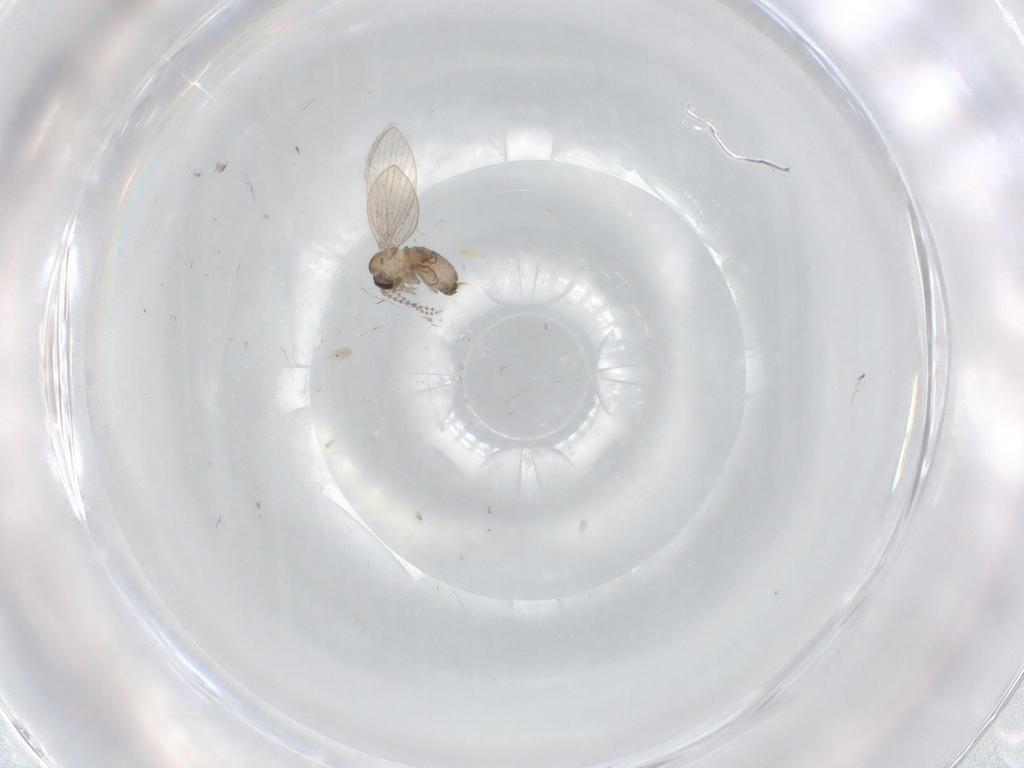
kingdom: Animalia
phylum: Arthropoda
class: Insecta
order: Diptera
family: Psychodidae
